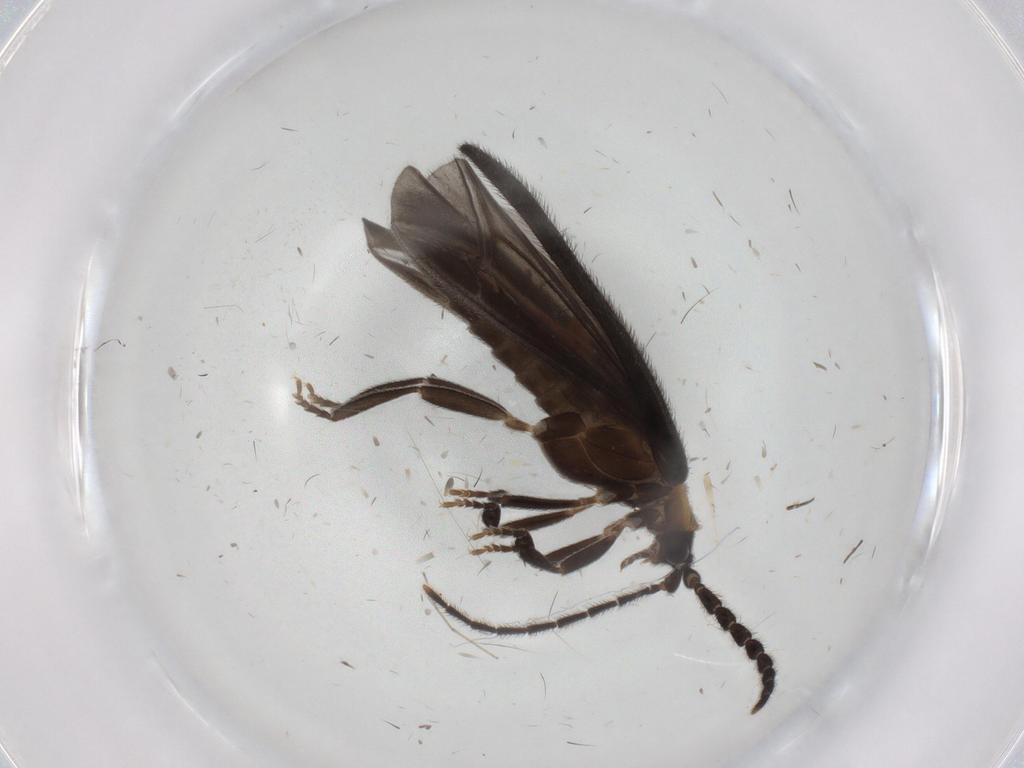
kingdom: Animalia
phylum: Arthropoda
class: Insecta
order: Coleoptera
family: Lycidae
